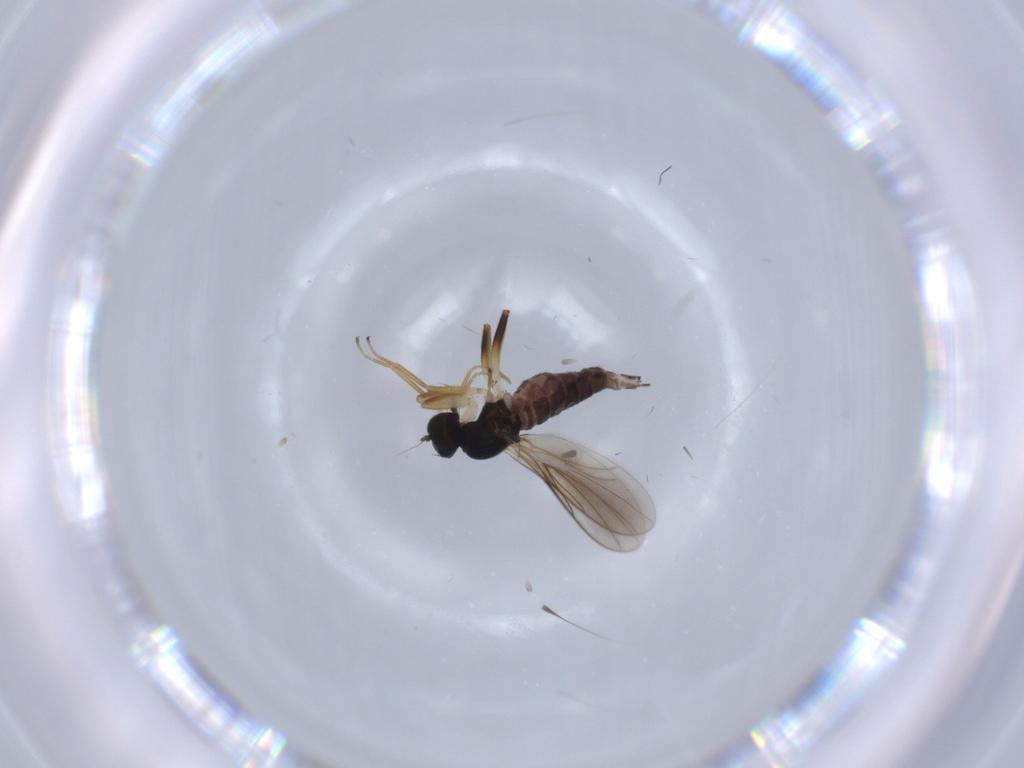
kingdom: Animalia
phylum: Arthropoda
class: Insecta
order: Diptera
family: Hybotidae
